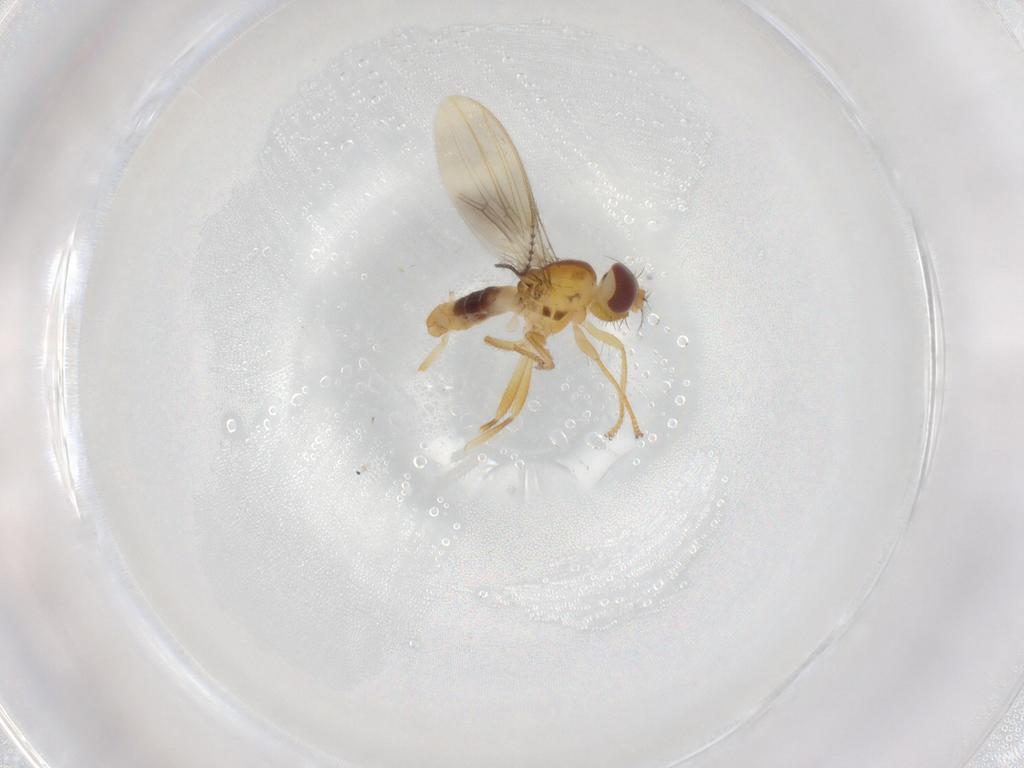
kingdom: Animalia
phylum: Arthropoda
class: Insecta
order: Diptera
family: Periscelididae
